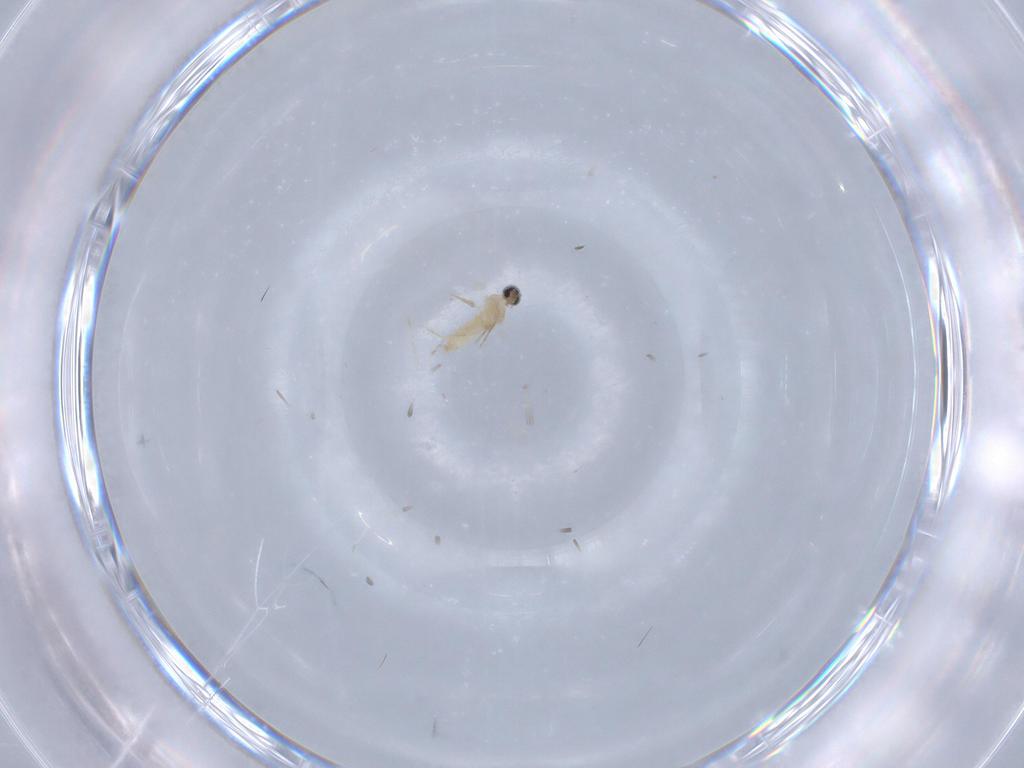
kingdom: Animalia
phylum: Arthropoda
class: Insecta
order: Diptera
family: Cecidomyiidae
